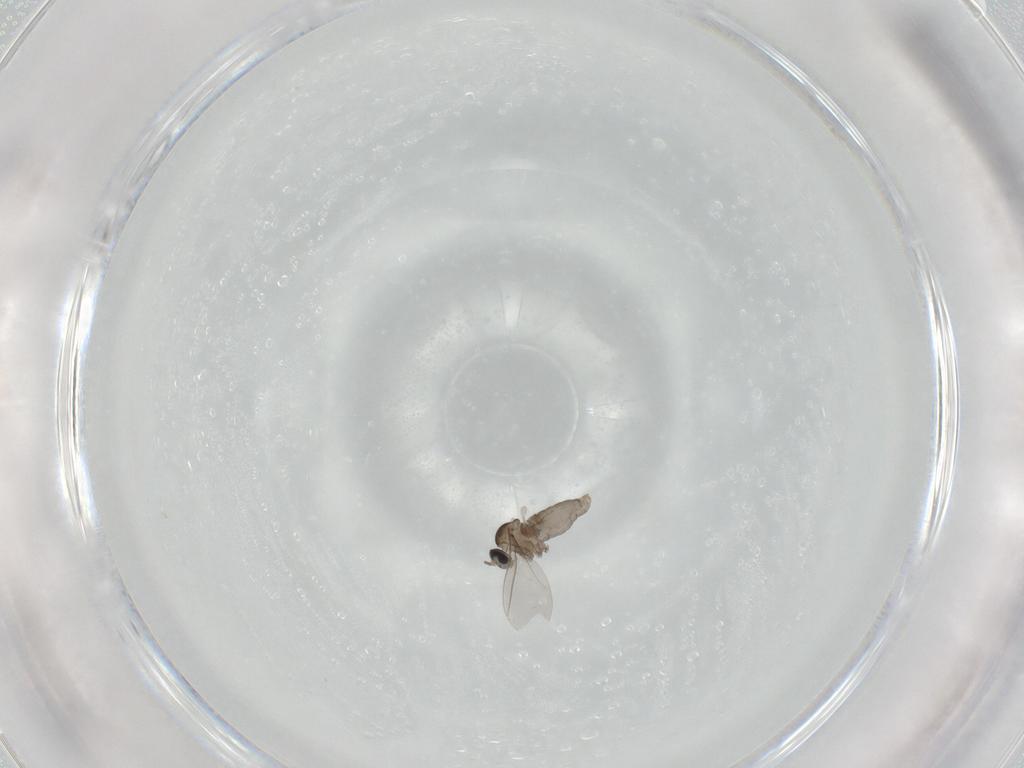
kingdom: Animalia
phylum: Arthropoda
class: Insecta
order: Diptera
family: Cecidomyiidae
